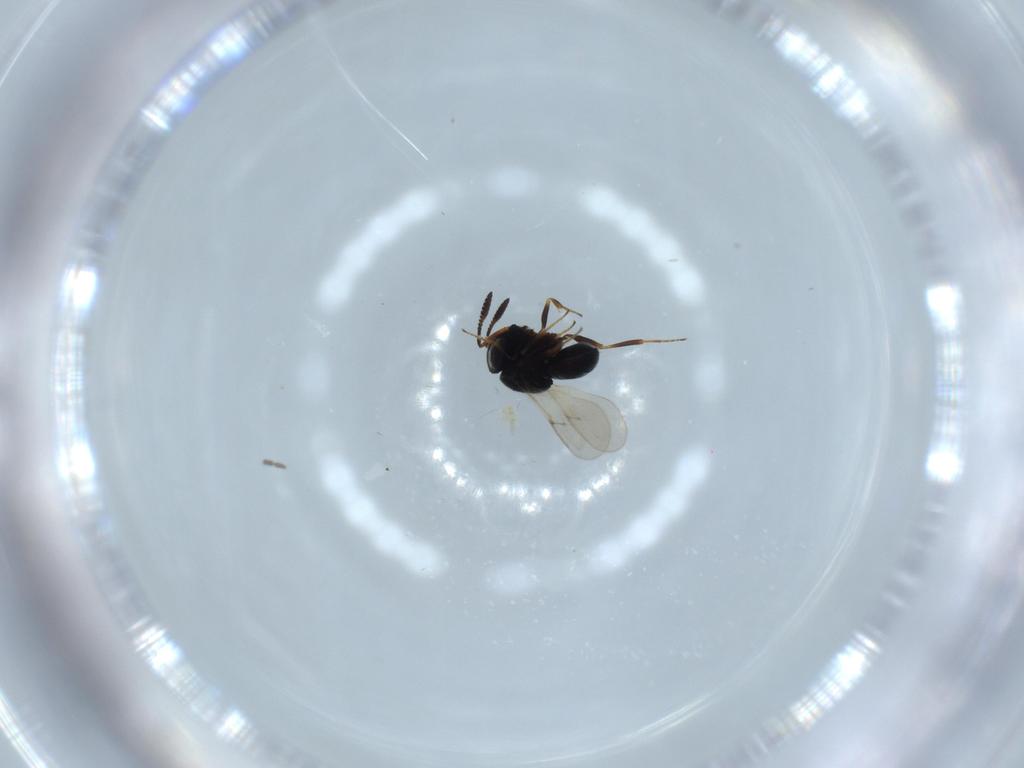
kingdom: Animalia
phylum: Arthropoda
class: Insecta
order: Hymenoptera
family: Scelionidae
